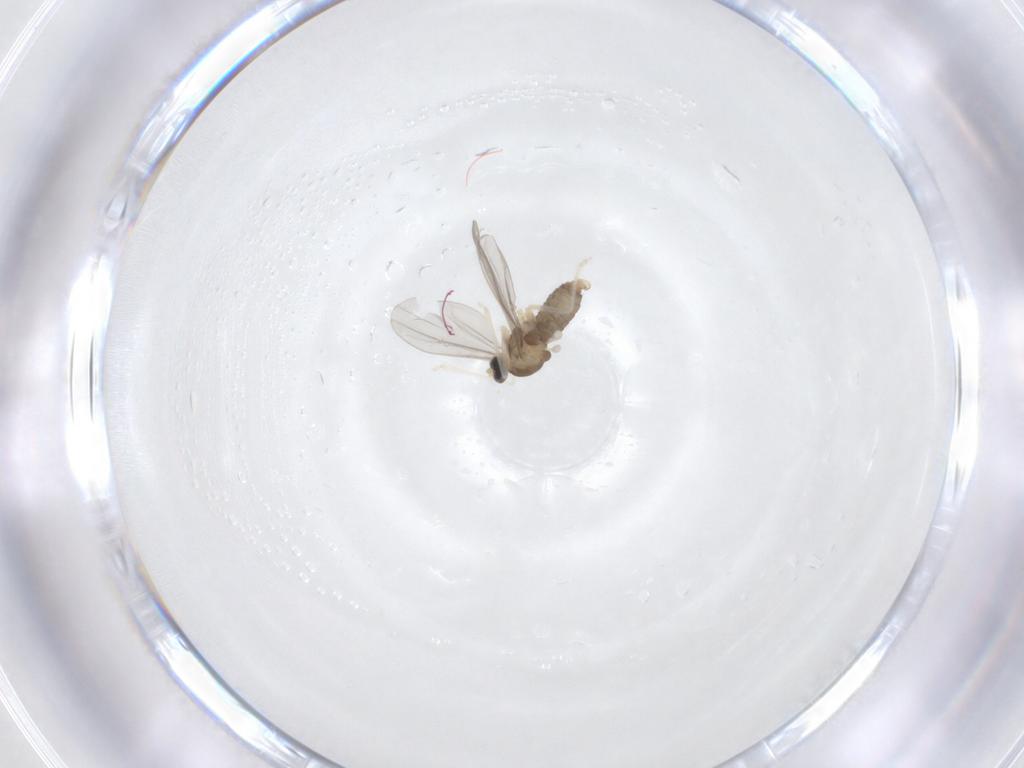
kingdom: Animalia
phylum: Arthropoda
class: Insecta
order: Diptera
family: Cecidomyiidae
